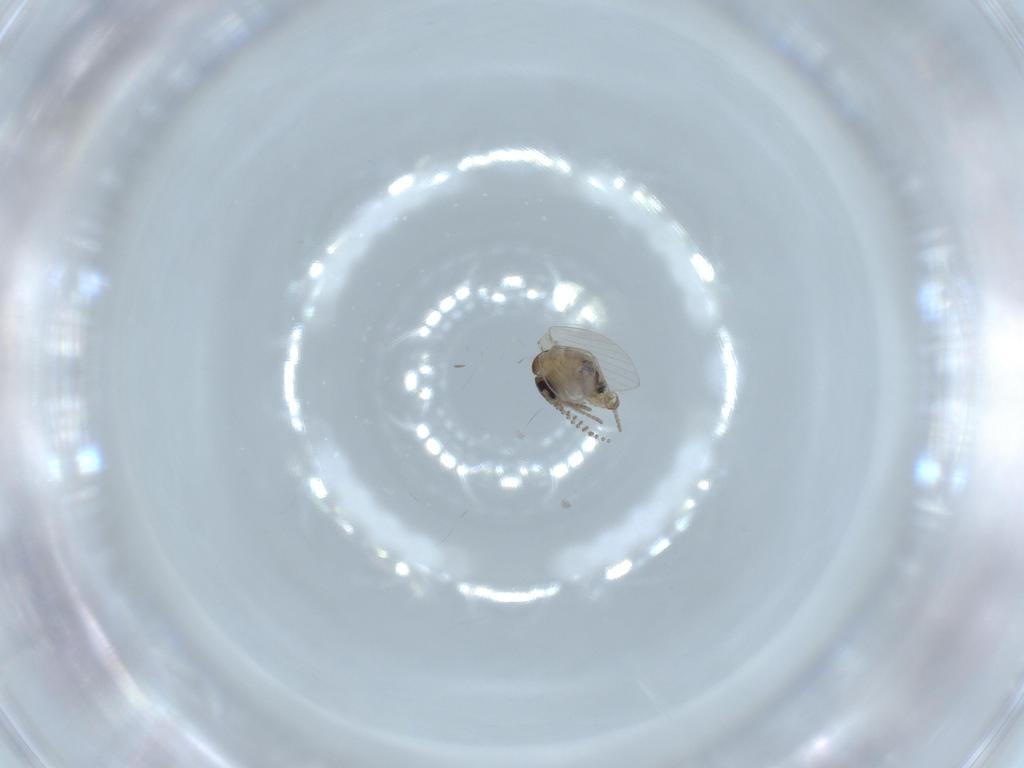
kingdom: Animalia
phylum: Arthropoda
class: Insecta
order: Diptera
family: Psychodidae
